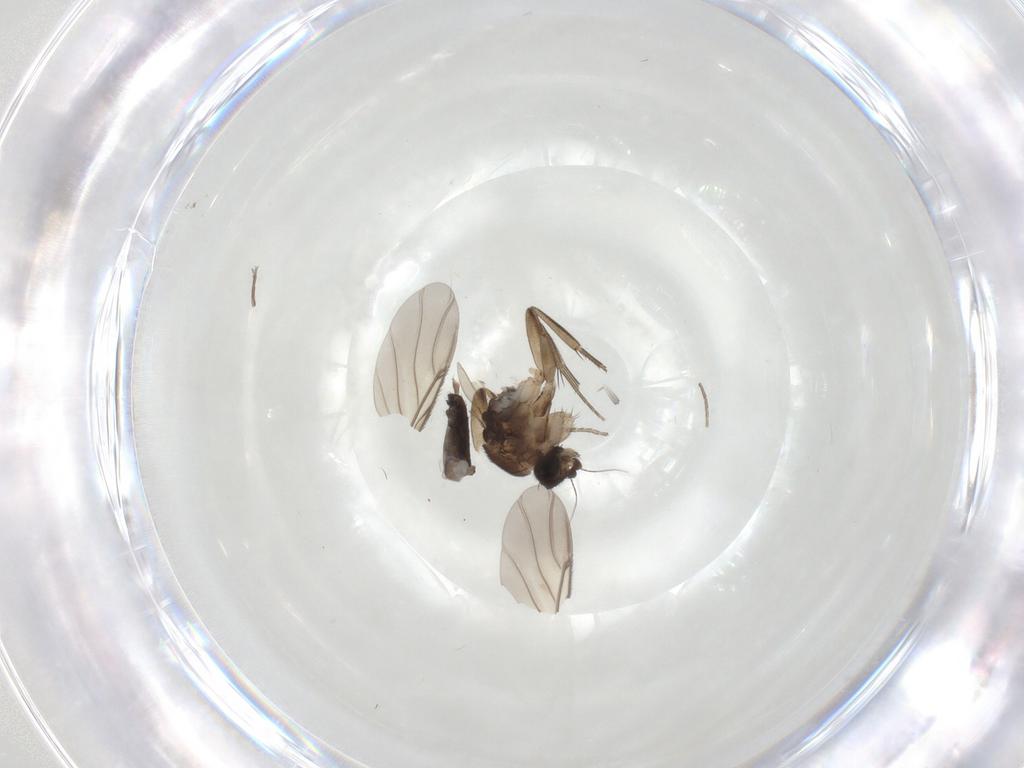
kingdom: Animalia
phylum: Arthropoda
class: Insecta
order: Diptera
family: Phoridae
